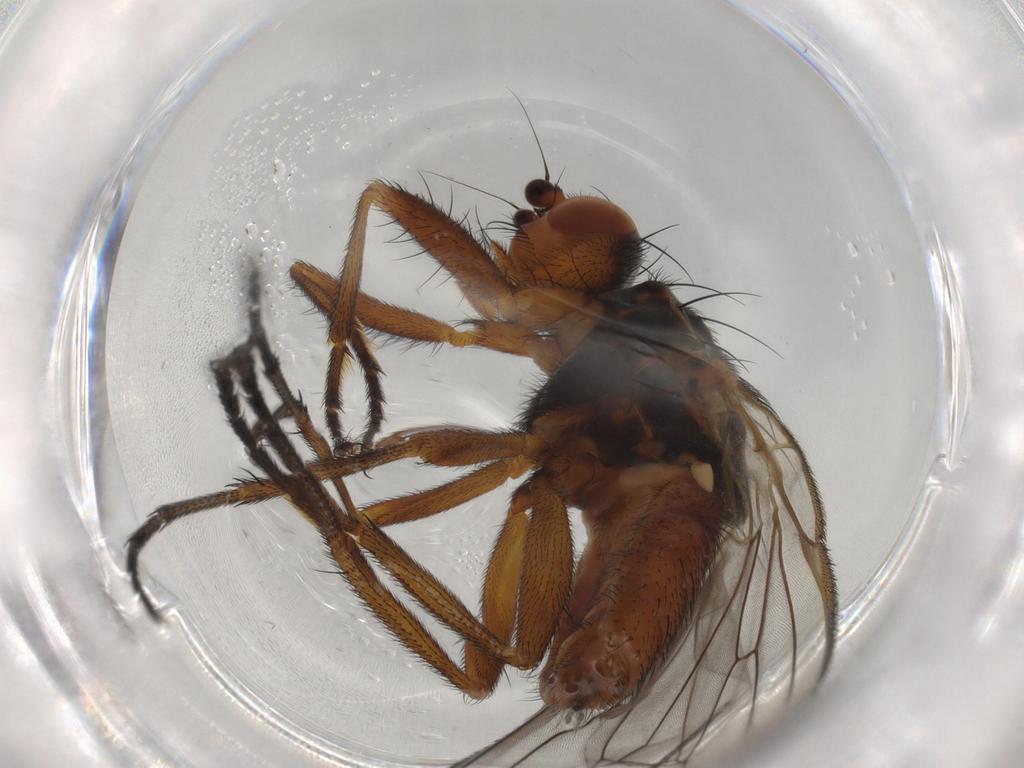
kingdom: Animalia
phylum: Arthropoda
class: Insecta
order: Diptera
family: Heleomyzidae
